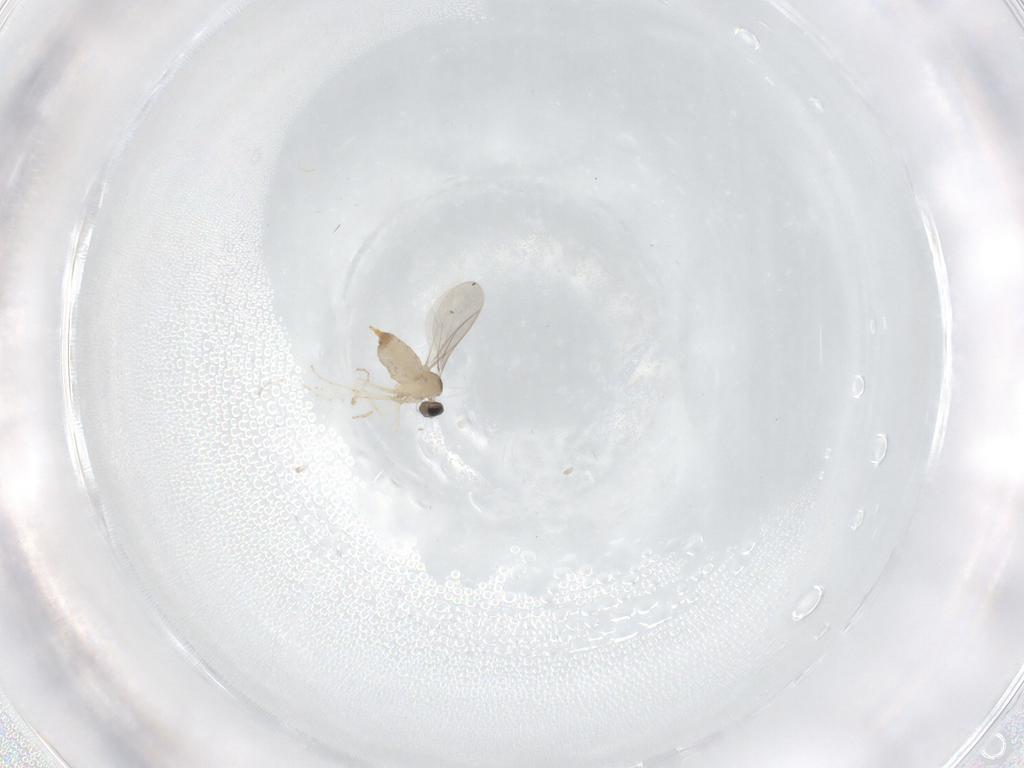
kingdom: Animalia
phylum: Arthropoda
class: Insecta
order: Diptera
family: Cecidomyiidae
